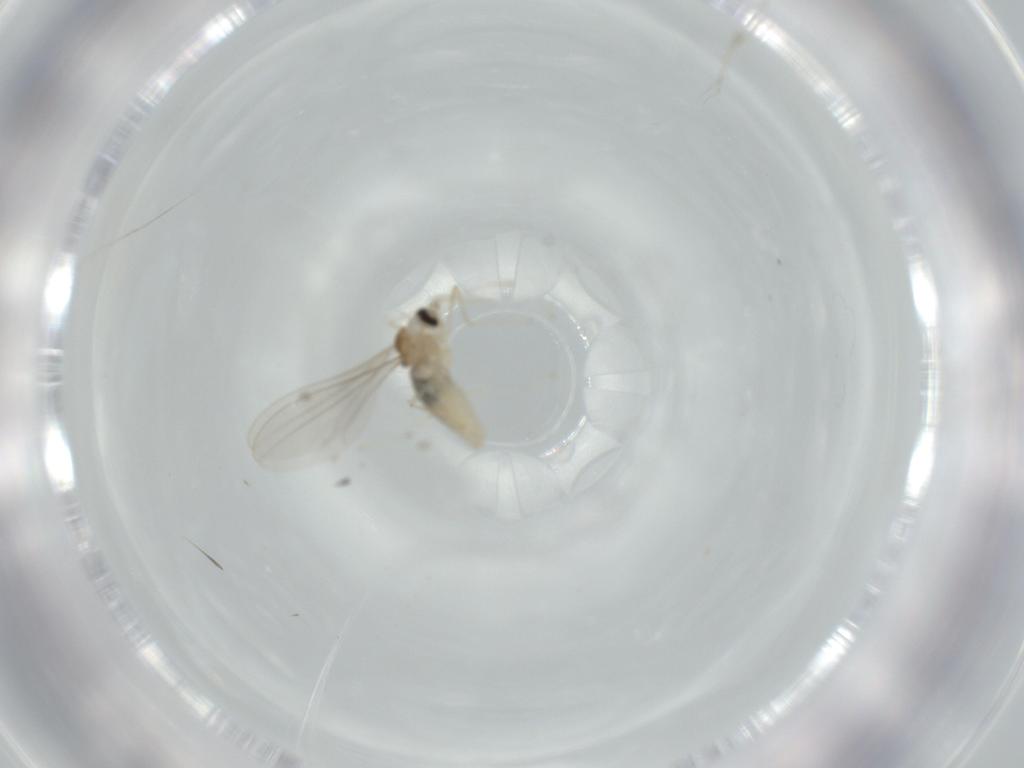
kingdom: Animalia
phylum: Arthropoda
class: Insecta
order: Diptera
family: Cecidomyiidae
